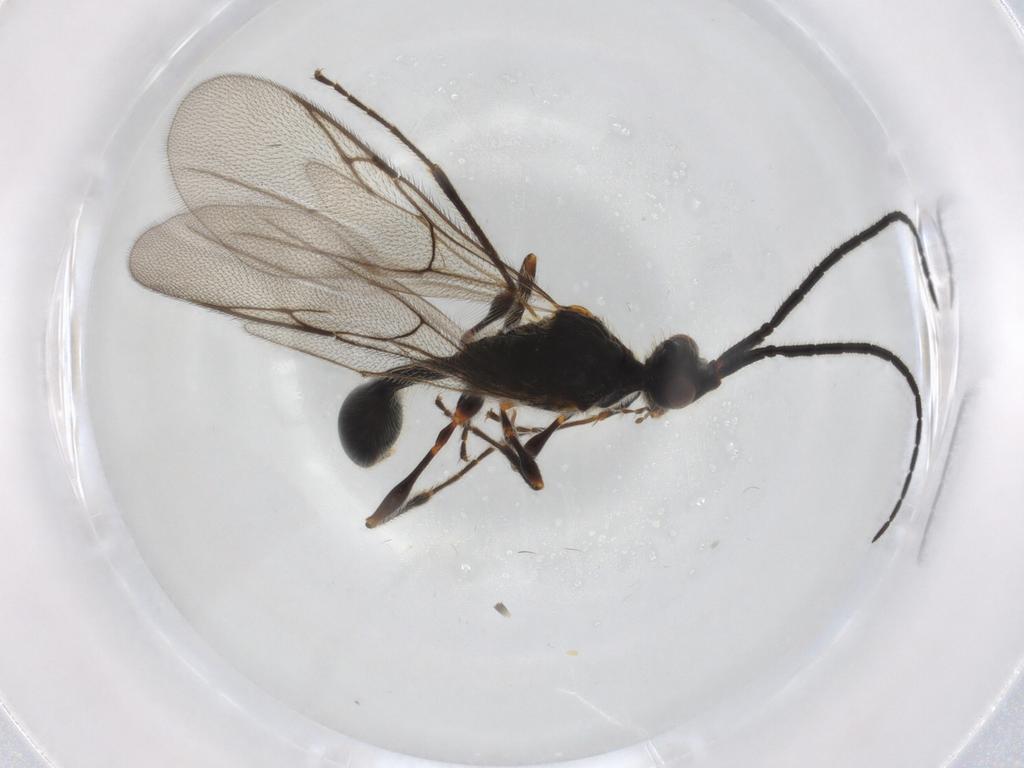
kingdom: Animalia
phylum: Arthropoda
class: Insecta
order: Hymenoptera
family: Diapriidae
